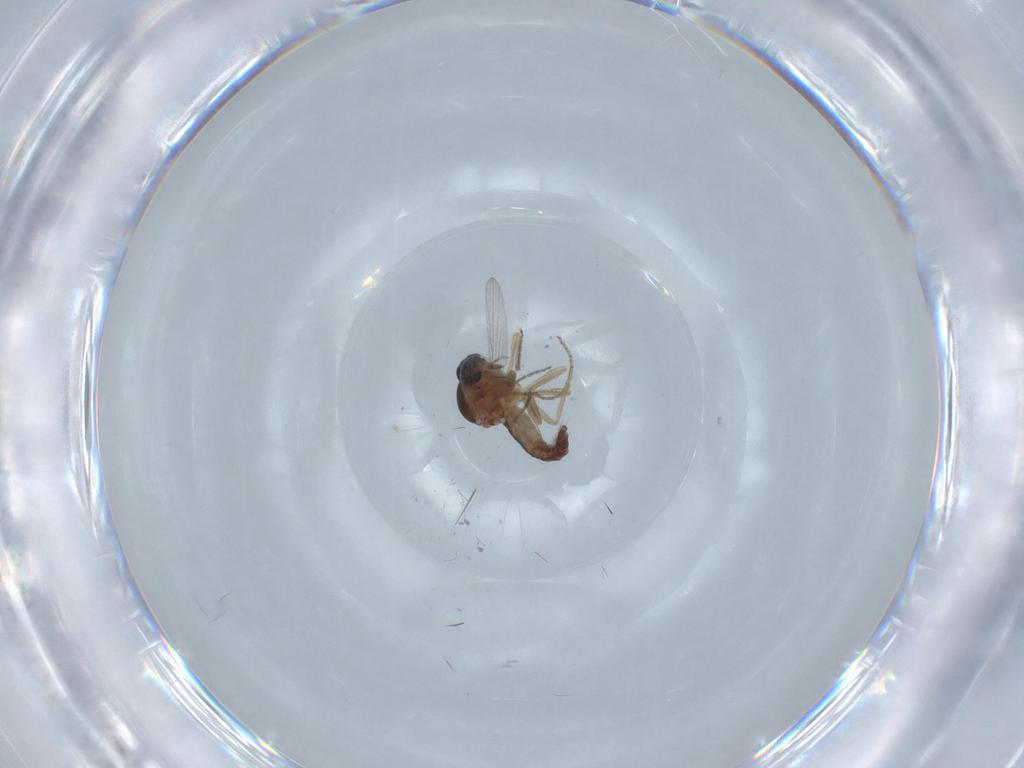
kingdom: Animalia
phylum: Arthropoda
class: Insecta
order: Diptera
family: Ceratopogonidae
